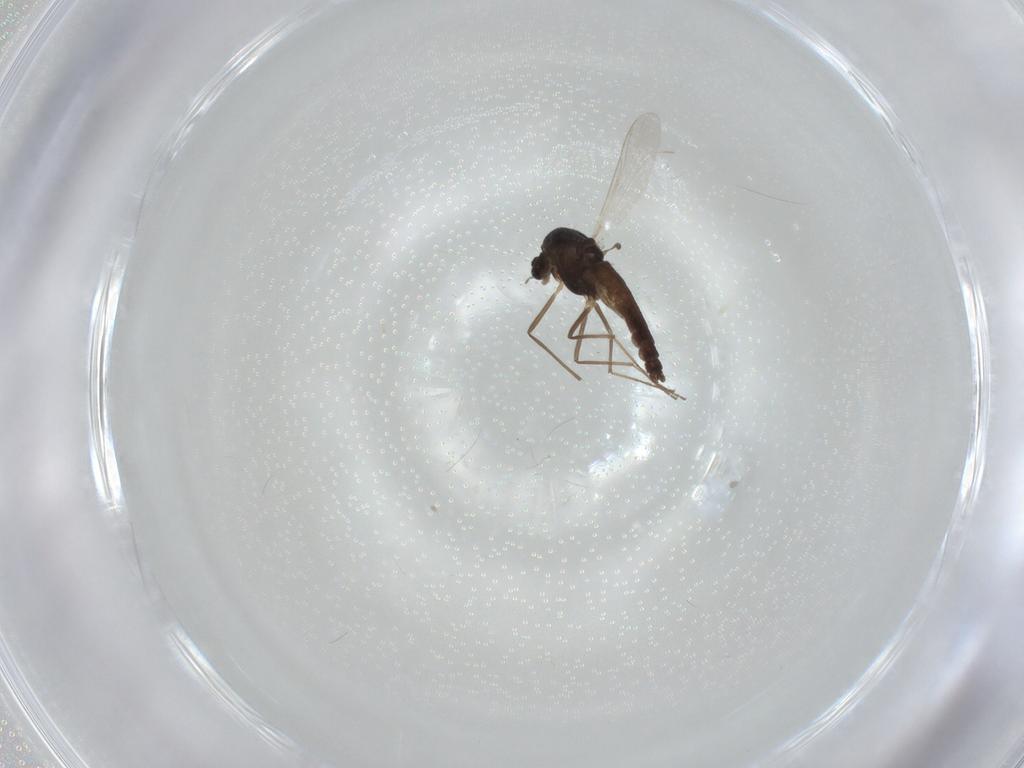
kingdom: Animalia
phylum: Arthropoda
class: Insecta
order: Diptera
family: Chironomidae
